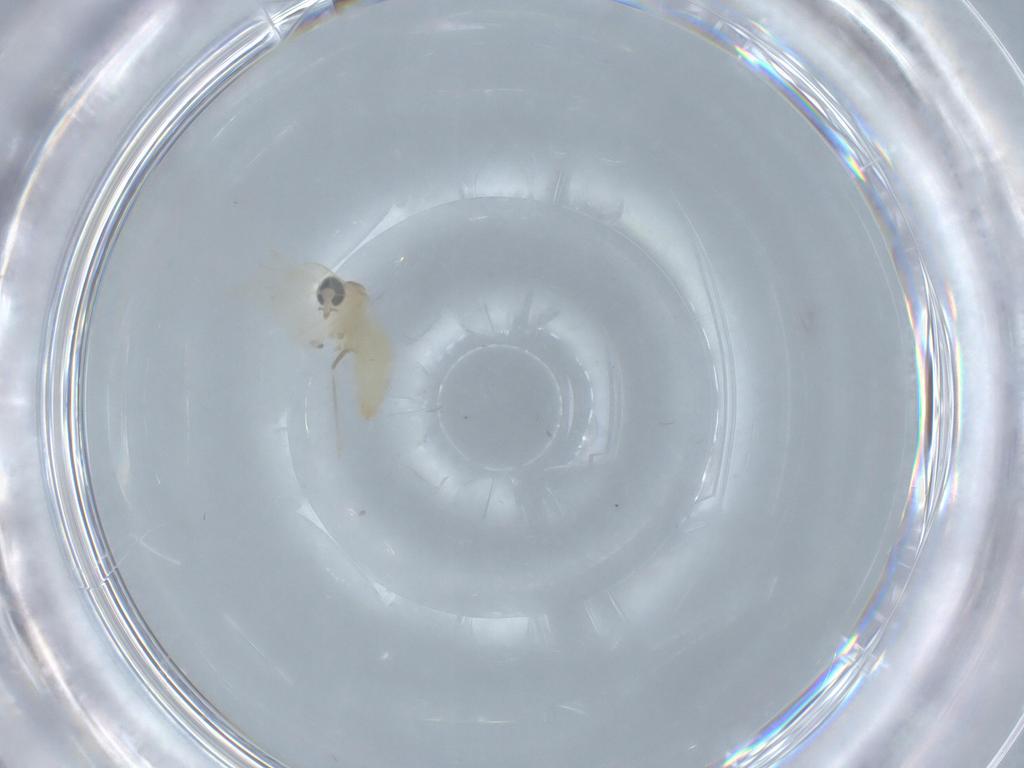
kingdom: Animalia
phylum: Arthropoda
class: Insecta
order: Diptera
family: Cecidomyiidae
